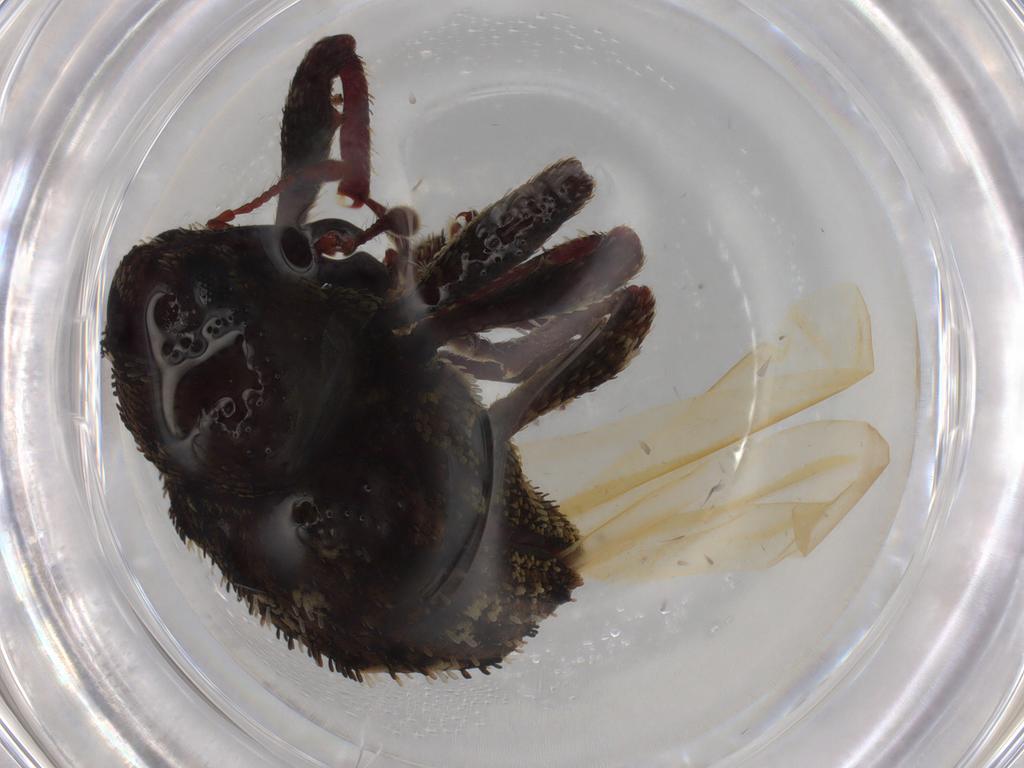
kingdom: Animalia
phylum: Arthropoda
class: Insecta
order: Coleoptera
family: Curculionidae
